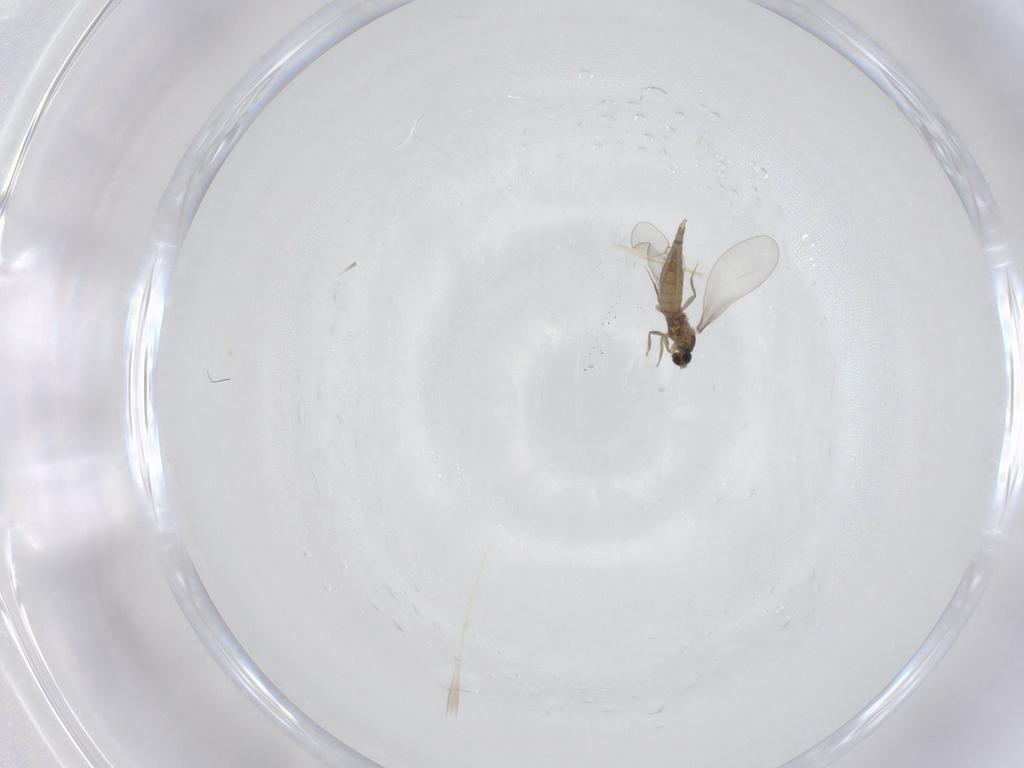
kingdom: Animalia
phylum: Arthropoda
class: Insecta
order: Diptera
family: Cecidomyiidae
